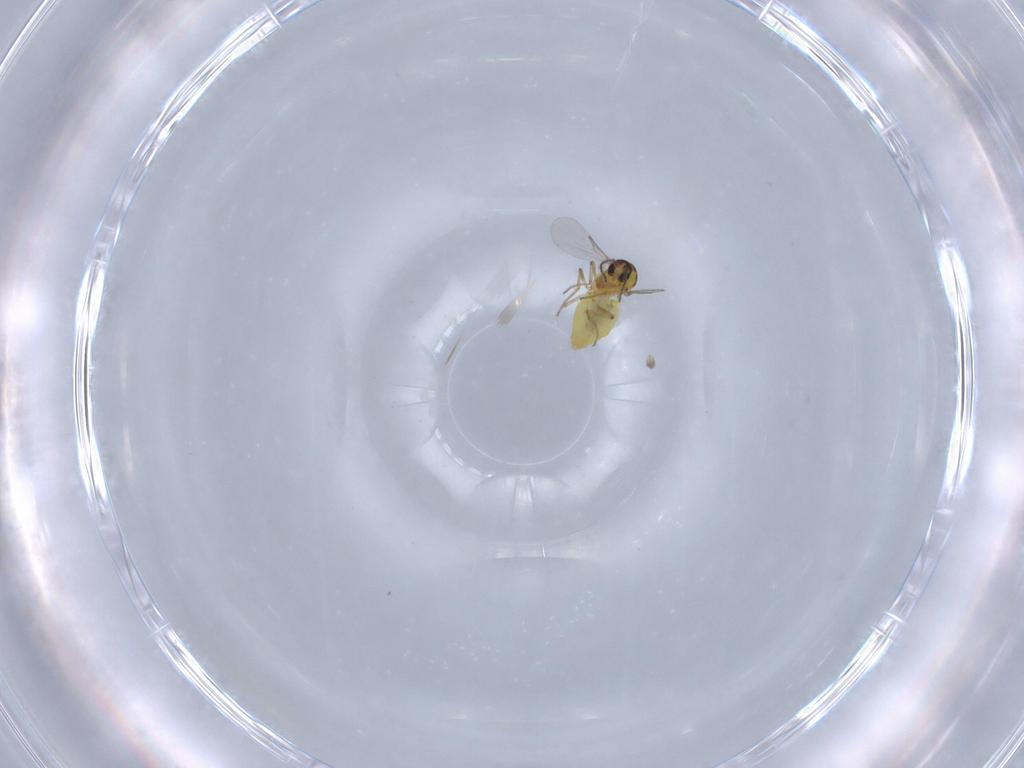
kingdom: Animalia
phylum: Arthropoda
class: Insecta
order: Diptera
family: Ceratopogonidae
